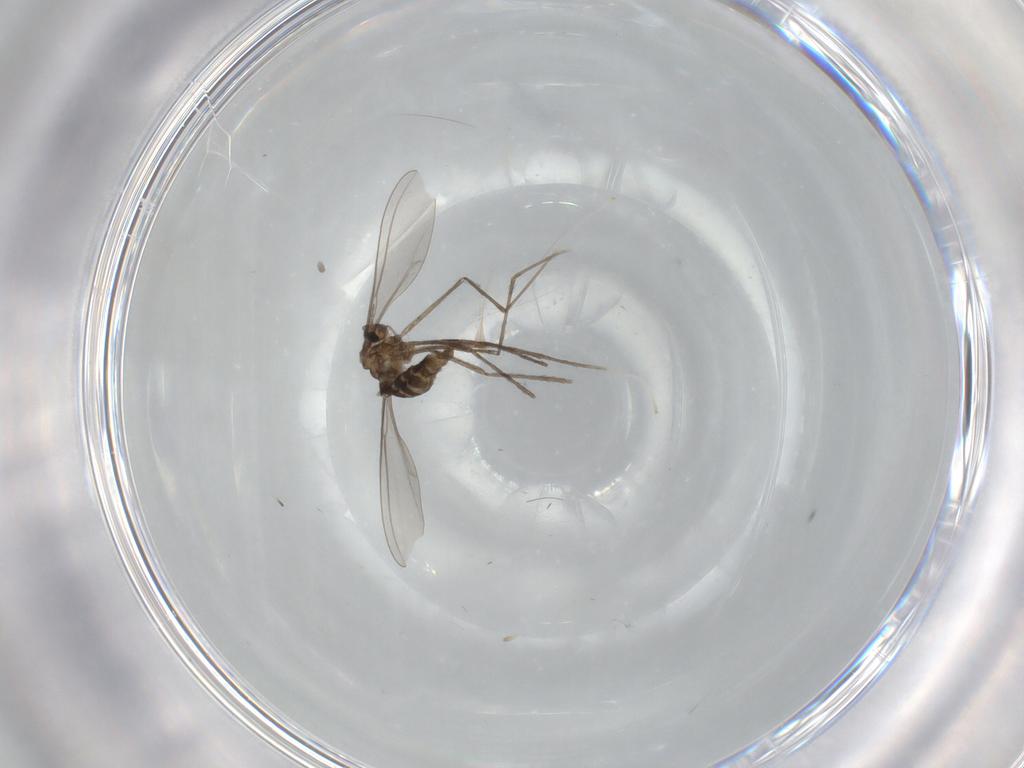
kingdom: Animalia
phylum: Arthropoda
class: Insecta
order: Diptera
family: Cecidomyiidae
